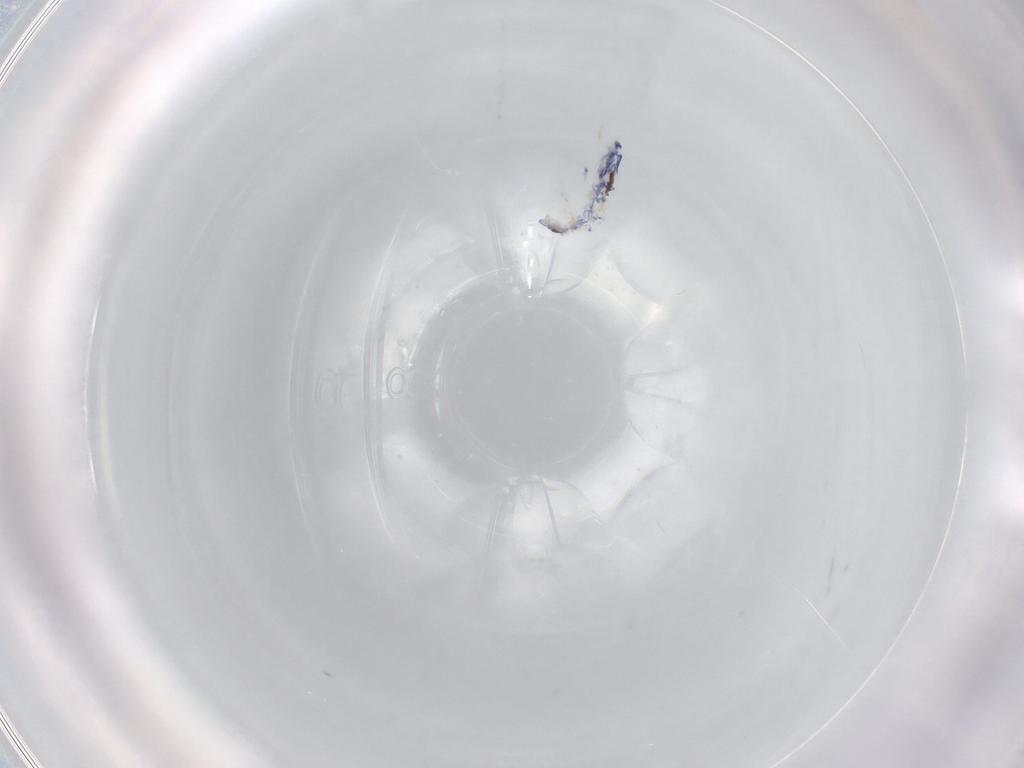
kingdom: Animalia
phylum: Arthropoda
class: Collembola
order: Entomobryomorpha
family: Entomobryidae
